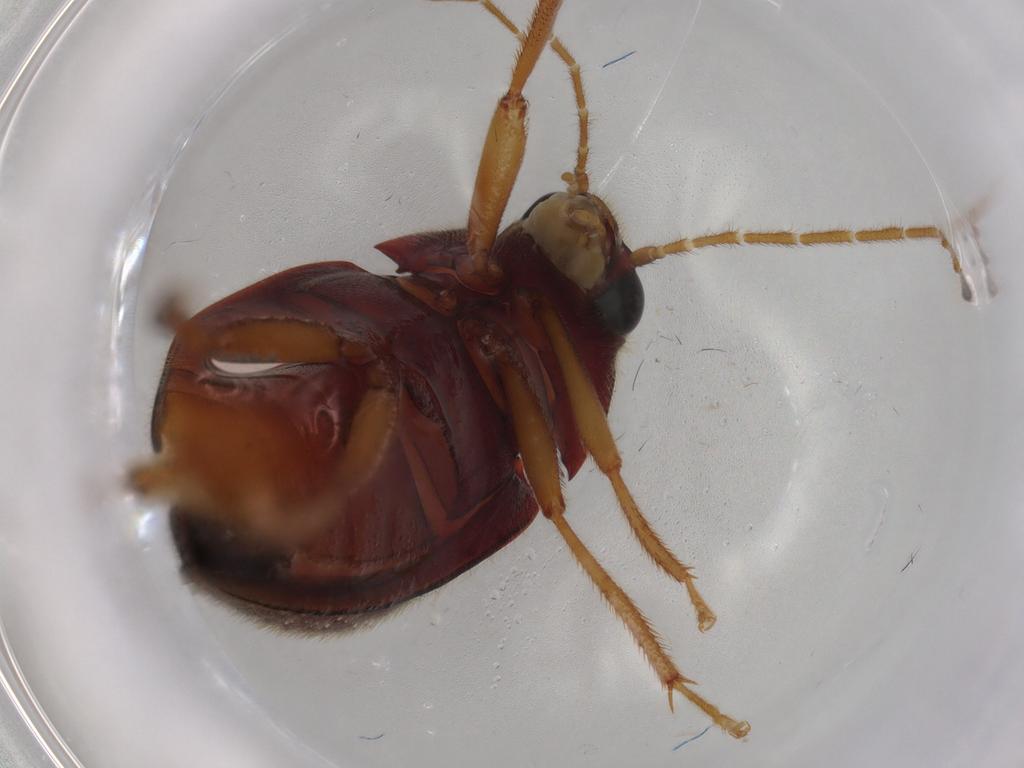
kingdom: Animalia
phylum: Arthropoda
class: Insecta
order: Coleoptera
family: Ptilodactylidae
